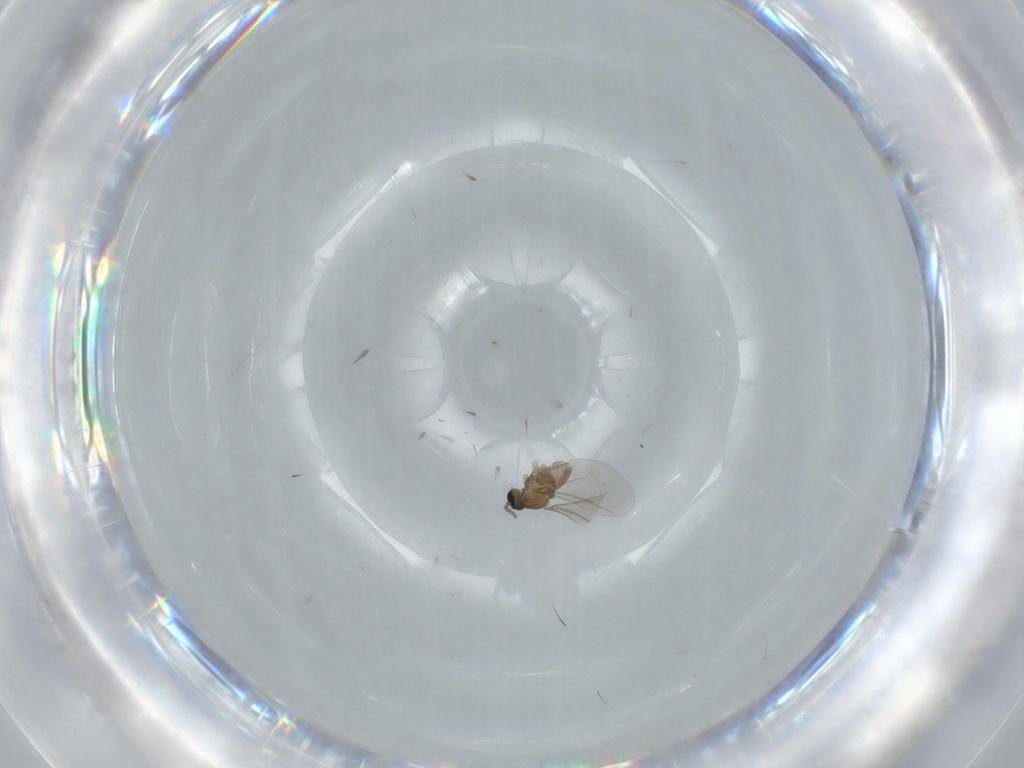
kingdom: Animalia
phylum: Arthropoda
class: Insecta
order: Diptera
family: Cecidomyiidae
